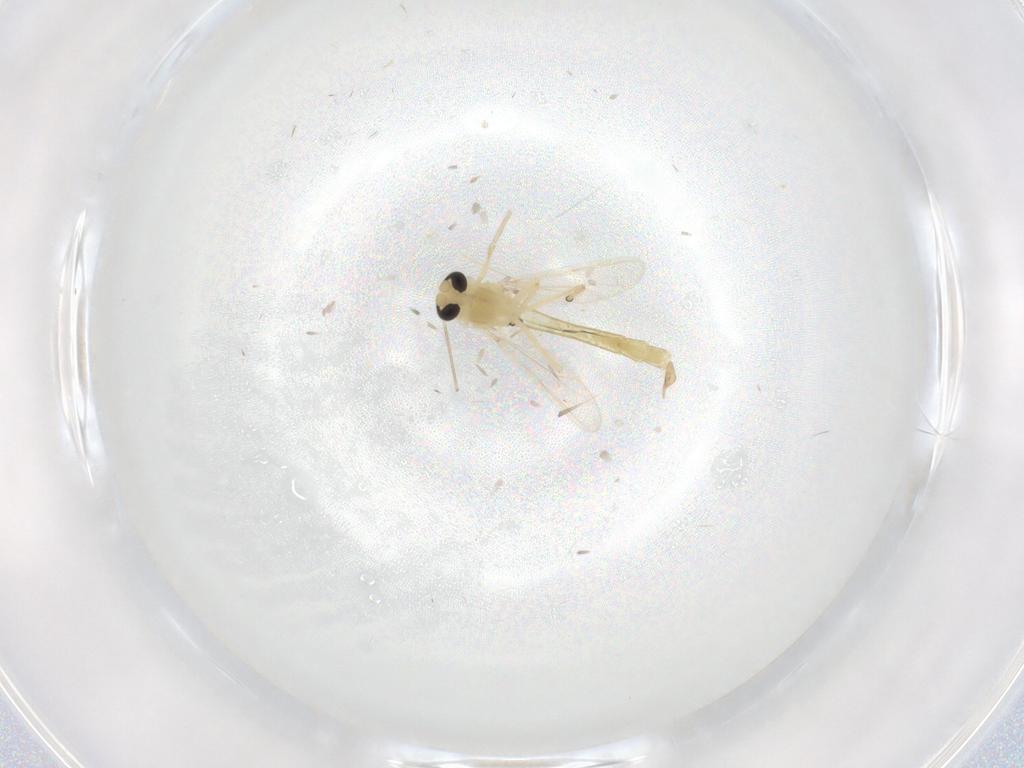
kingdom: Animalia
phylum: Arthropoda
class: Insecta
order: Diptera
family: Chironomidae
